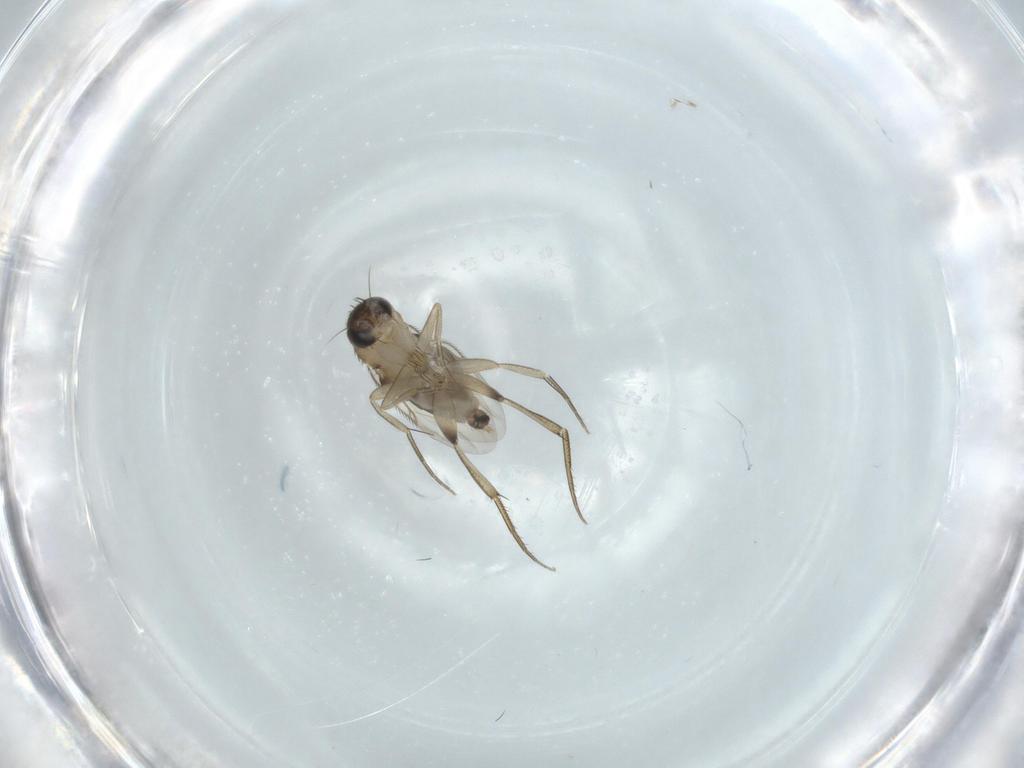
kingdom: Animalia
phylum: Arthropoda
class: Insecta
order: Diptera
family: Phoridae
